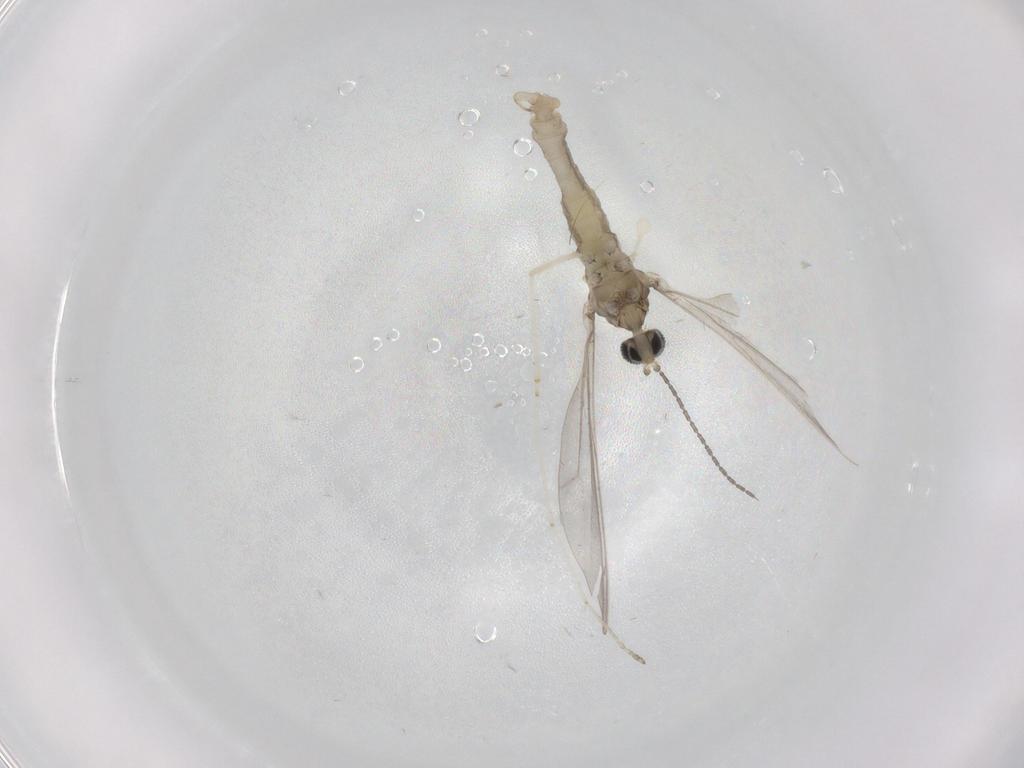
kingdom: Animalia
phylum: Arthropoda
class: Insecta
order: Diptera
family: Cecidomyiidae
